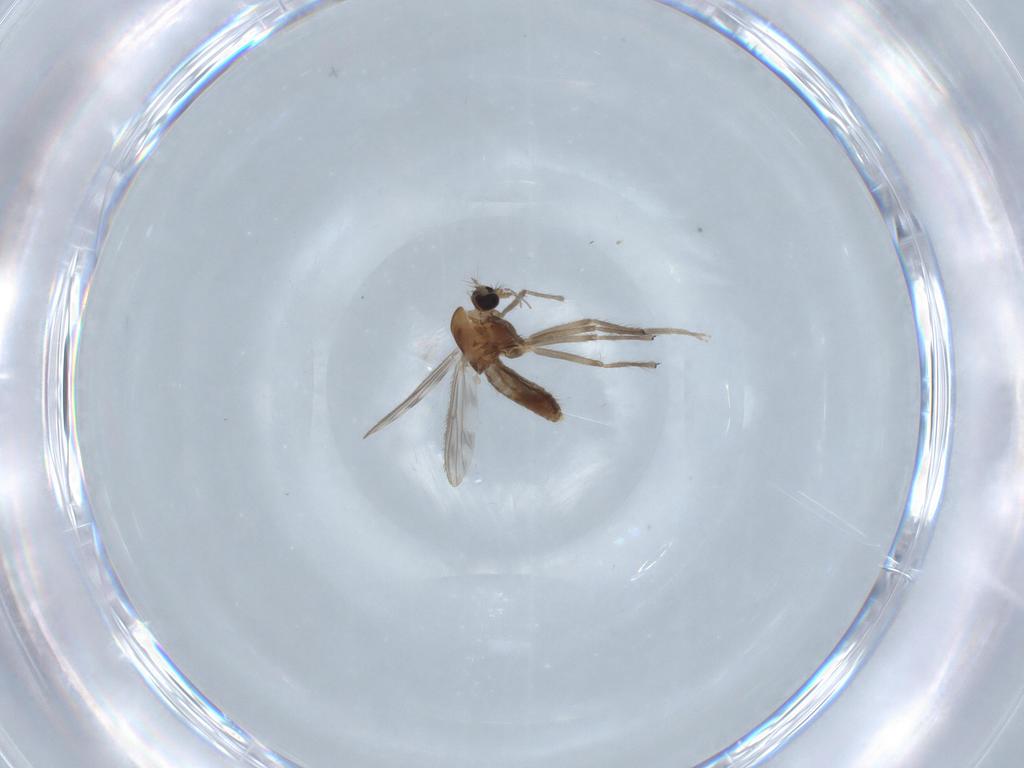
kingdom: Animalia
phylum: Arthropoda
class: Insecta
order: Diptera
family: Chironomidae
